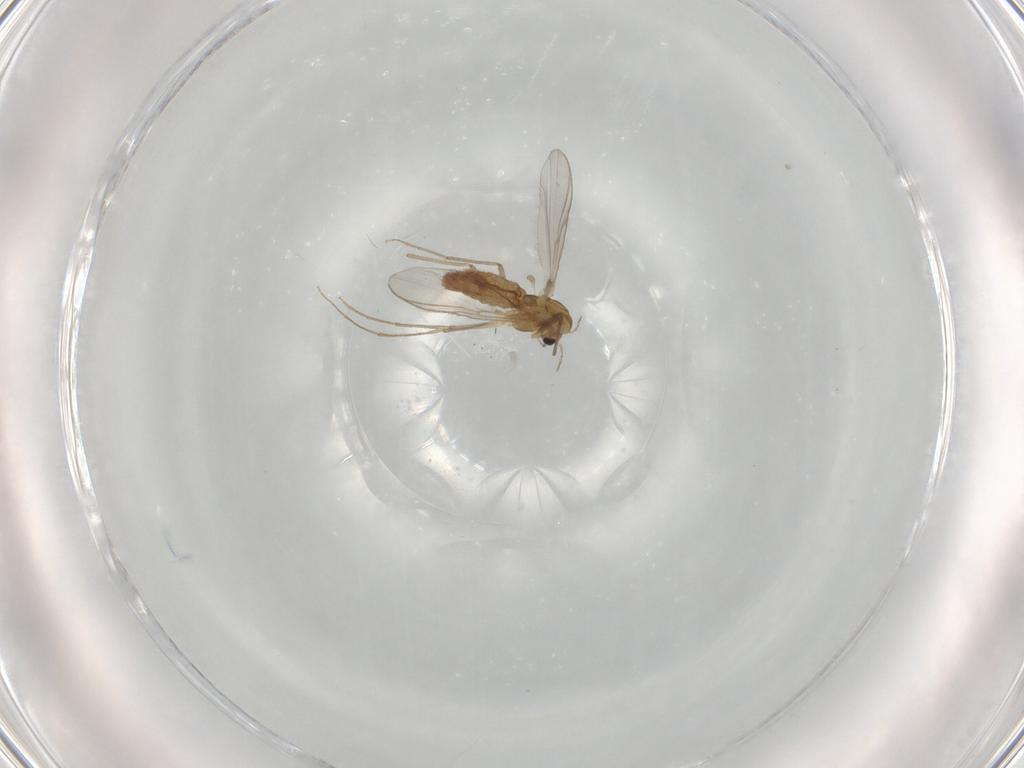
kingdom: Animalia
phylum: Arthropoda
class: Insecta
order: Diptera
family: Chironomidae
